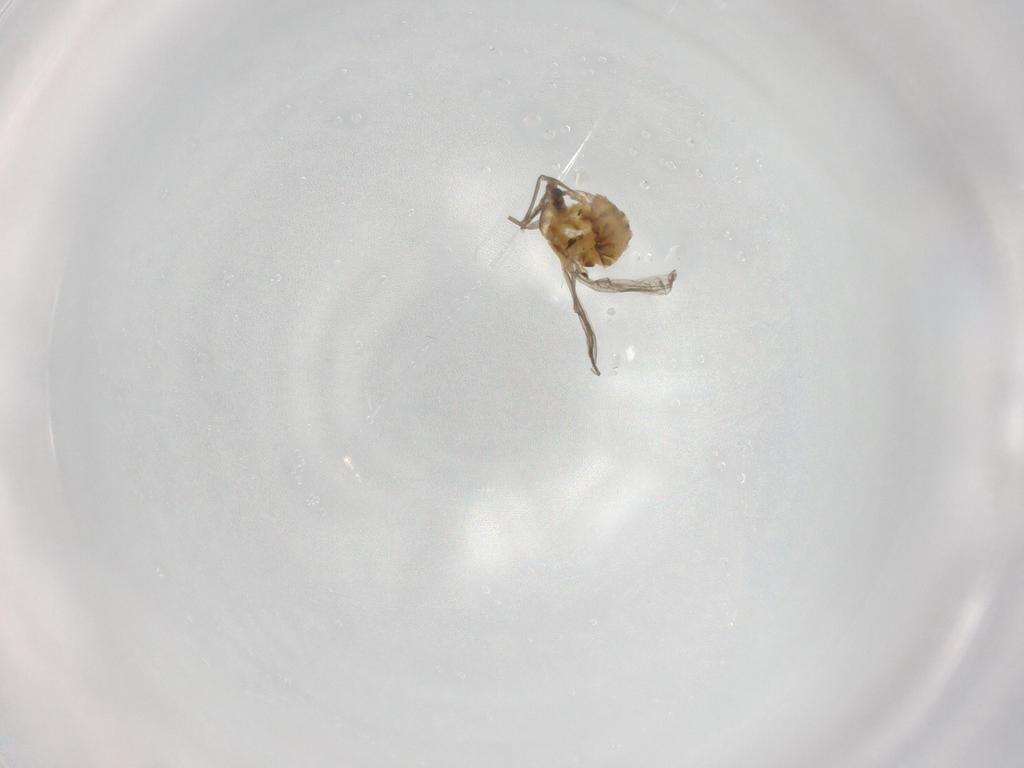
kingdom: Animalia
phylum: Arthropoda
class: Insecta
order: Diptera
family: Chironomidae
